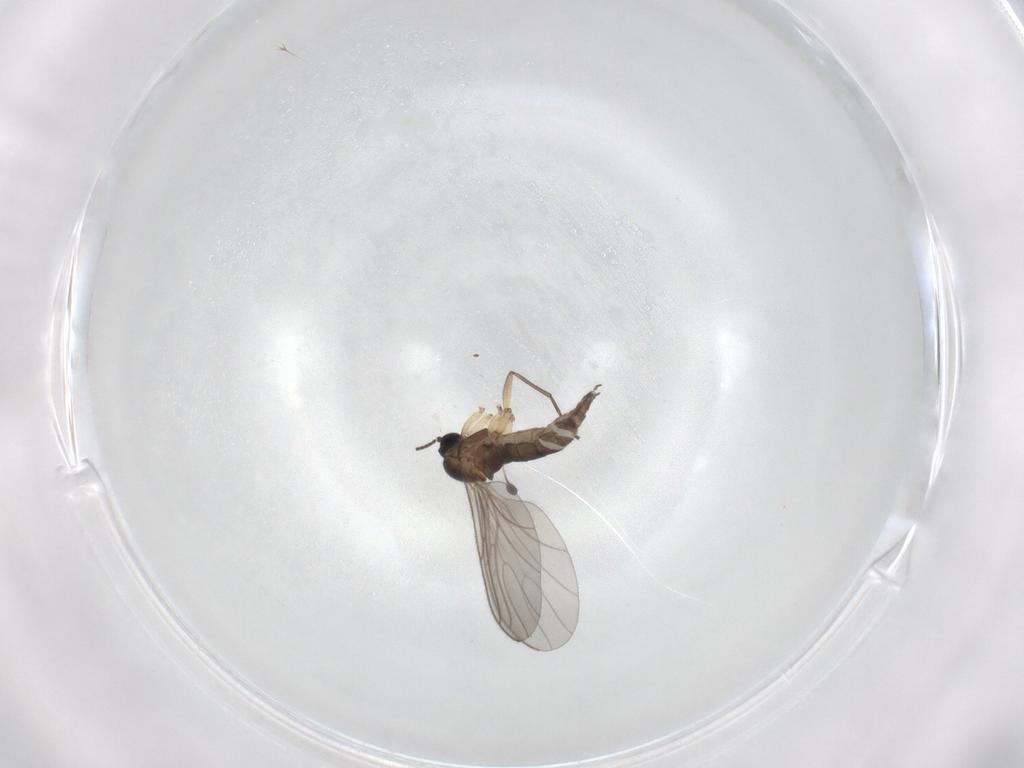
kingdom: Animalia
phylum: Arthropoda
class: Insecta
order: Diptera
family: Sciaridae
